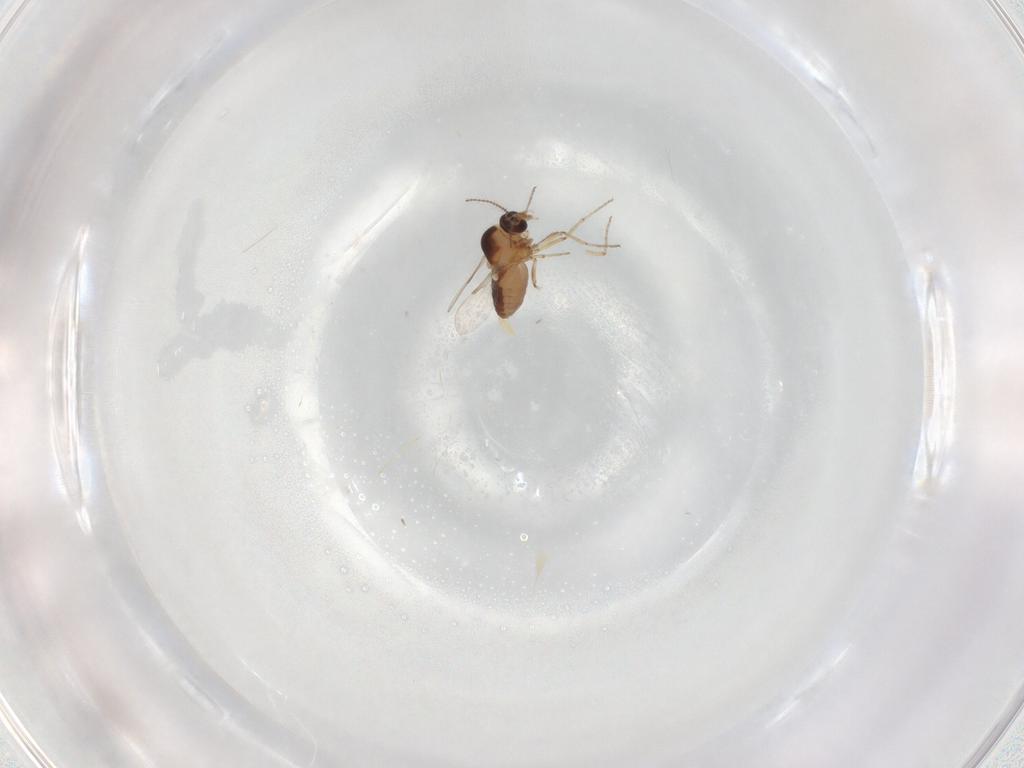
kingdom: Animalia
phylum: Arthropoda
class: Insecta
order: Diptera
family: Ceratopogonidae
